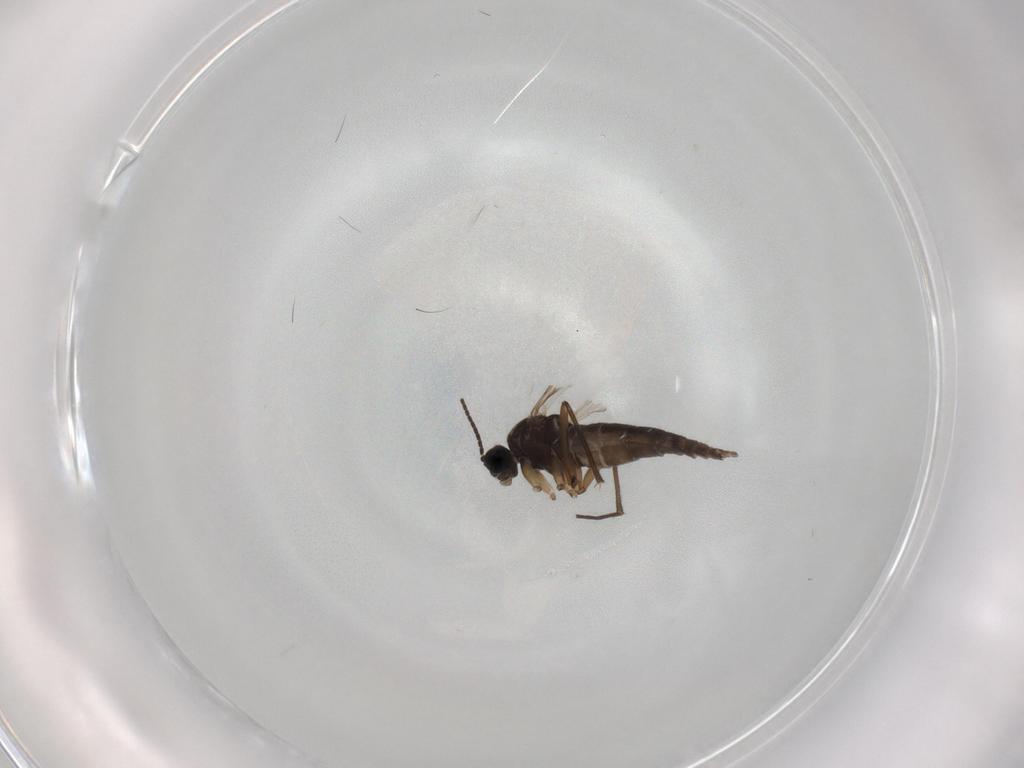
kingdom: Animalia
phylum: Arthropoda
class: Insecta
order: Diptera
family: Sciaridae
